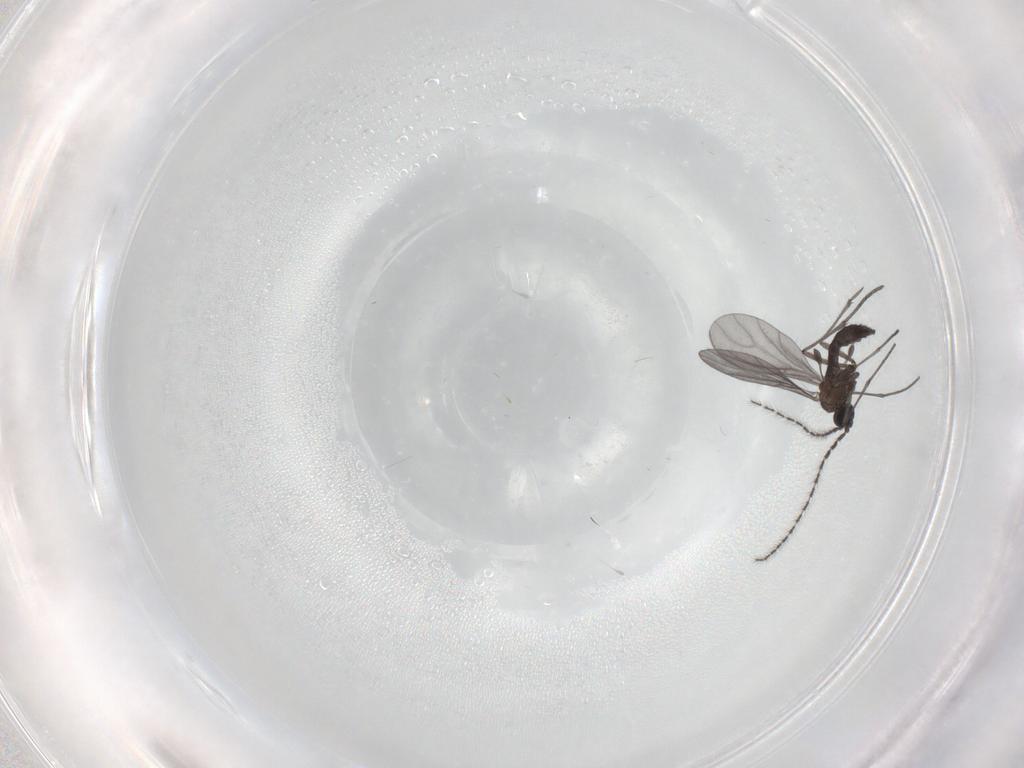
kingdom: Animalia
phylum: Arthropoda
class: Insecta
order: Diptera
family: Sciaridae
